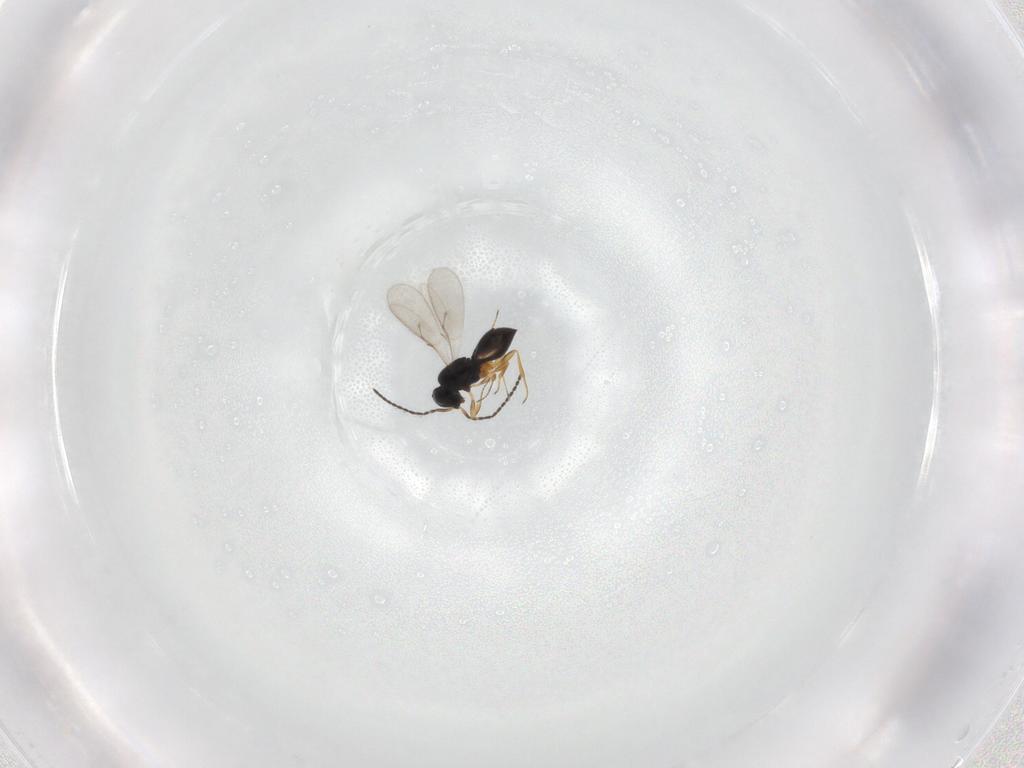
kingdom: Animalia
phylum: Arthropoda
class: Insecta
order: Hymenoptera
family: Scelionidae
